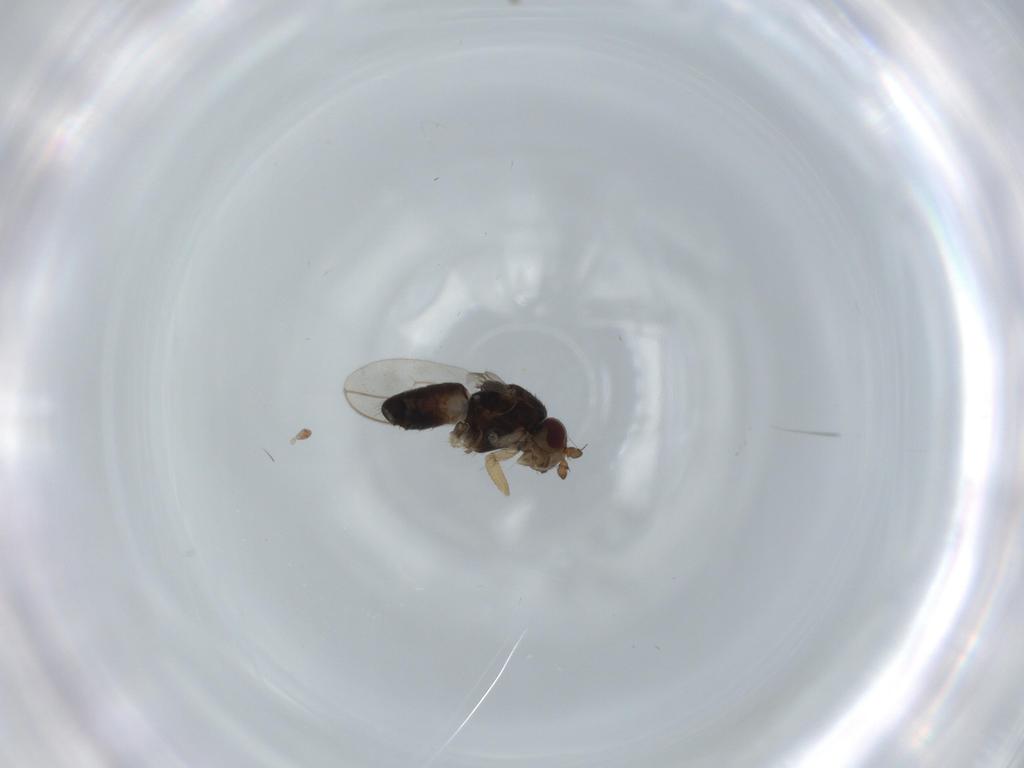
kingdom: Animalia
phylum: Arthropoda
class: Insecta
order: Diptera
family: Sphaeroceridae
